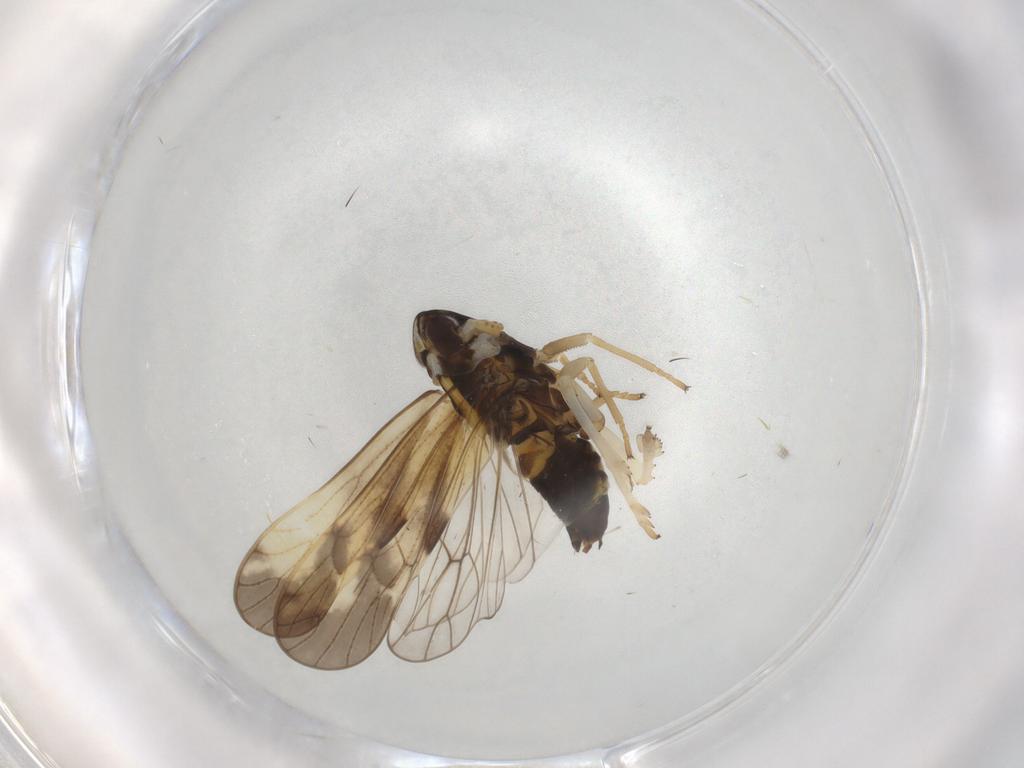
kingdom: Animalia
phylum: Arthropoda
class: Insecta
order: Hemiptera
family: Cicadellidae
